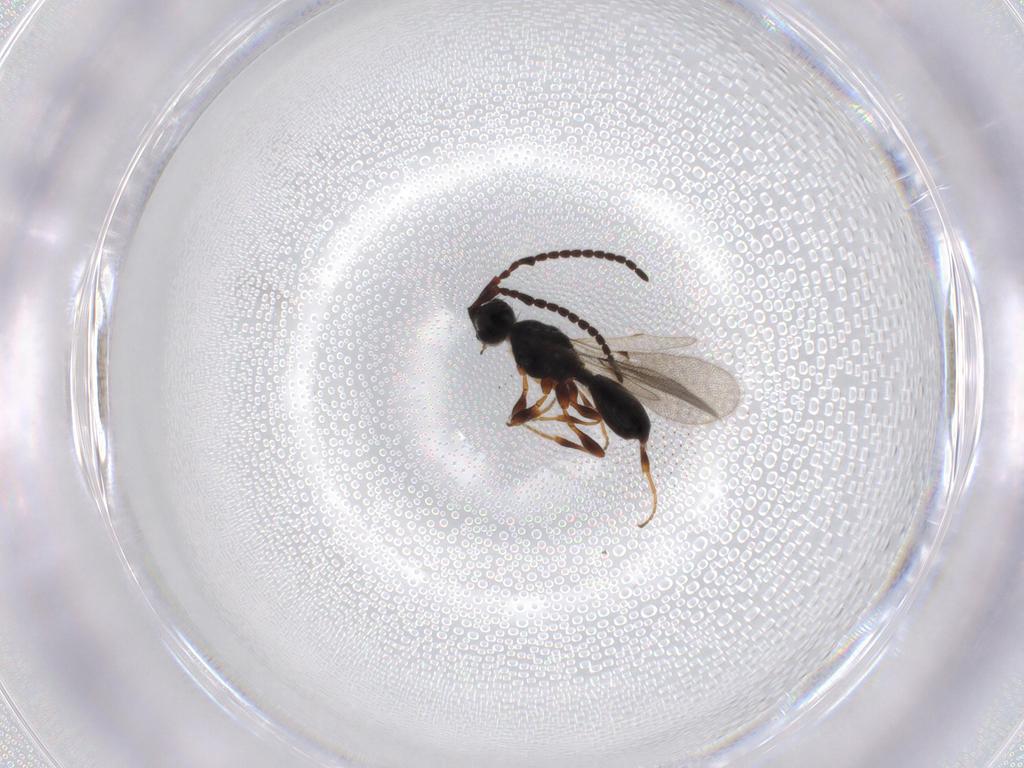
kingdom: Animalia
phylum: Arthropoda
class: Insecta
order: Hymenoptera
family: Diapriidae
